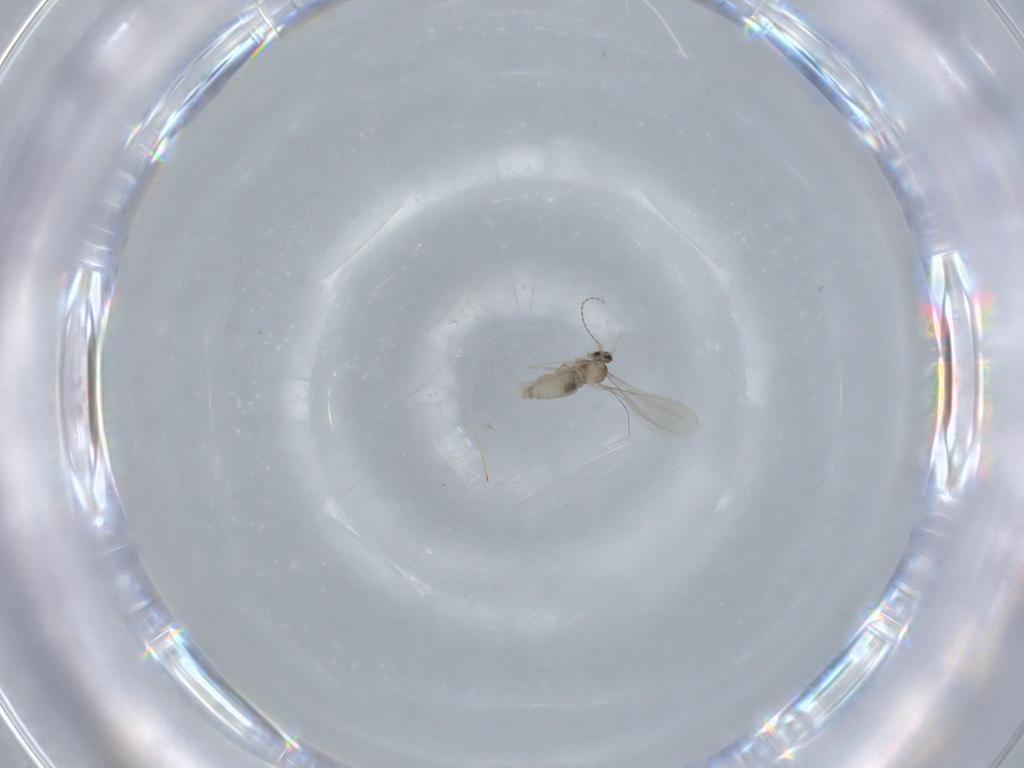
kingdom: Animalia
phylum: Arthropoda
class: Insecta
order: Diptera
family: Cecidomyiidae
